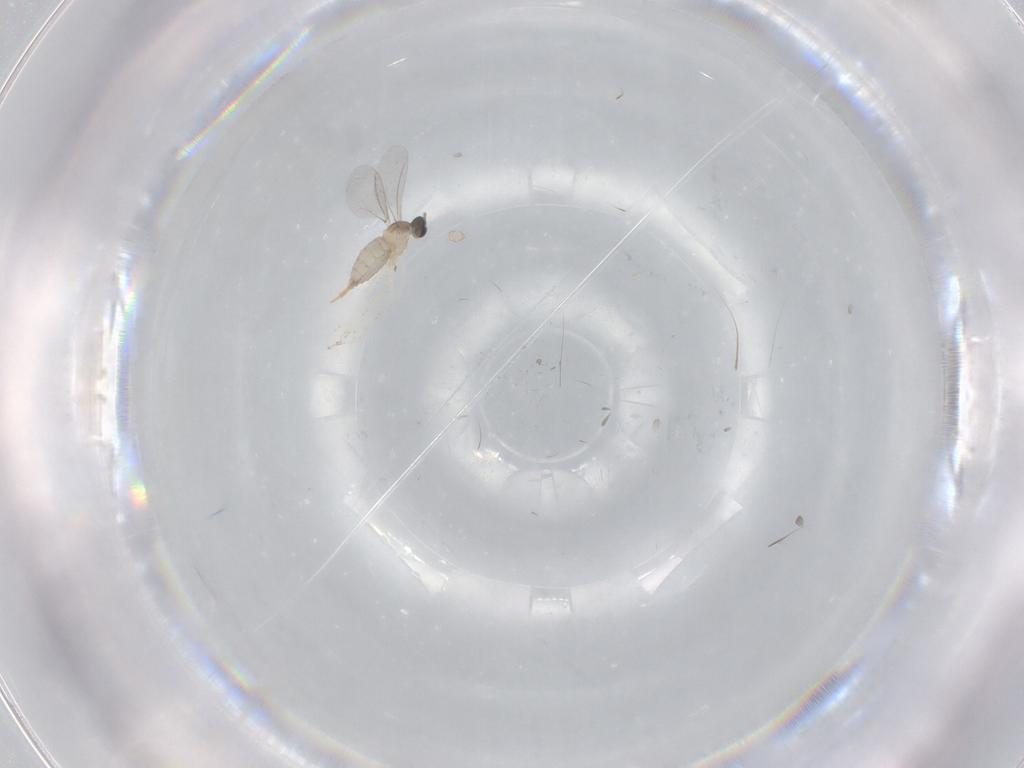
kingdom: Animalia
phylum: Arthropoda
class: Insecta
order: Diptera
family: Cecidomyiidae
